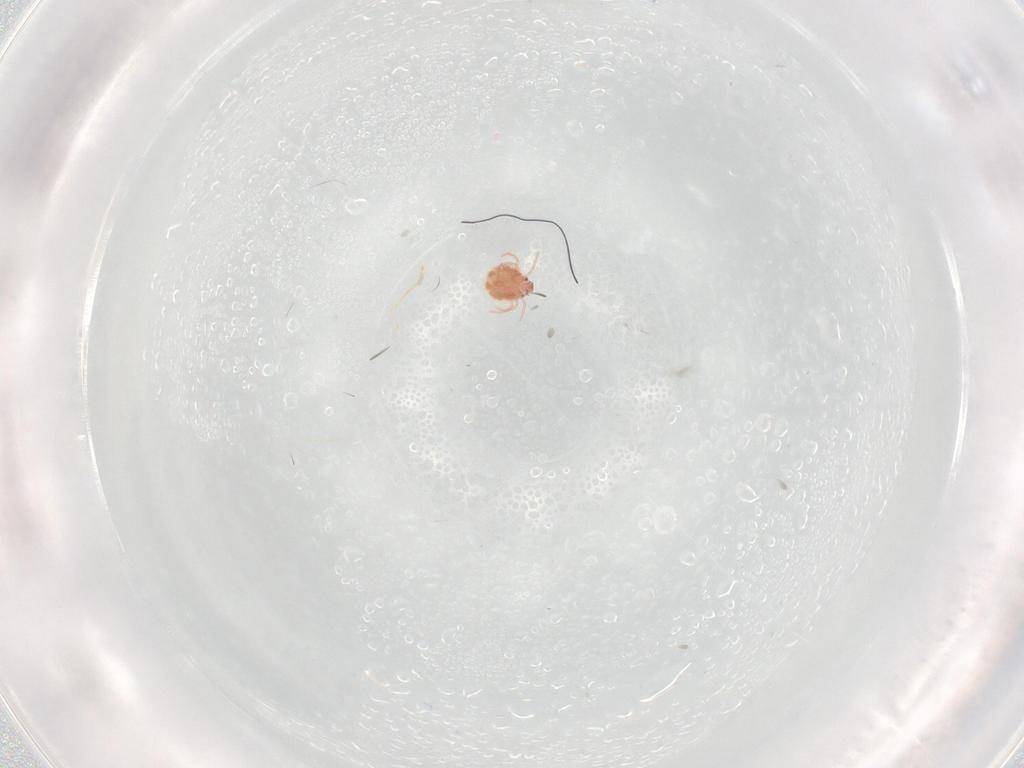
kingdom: Animalia
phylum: Arthropoda
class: Arachnida
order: Trombidiformes
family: Pionidae
